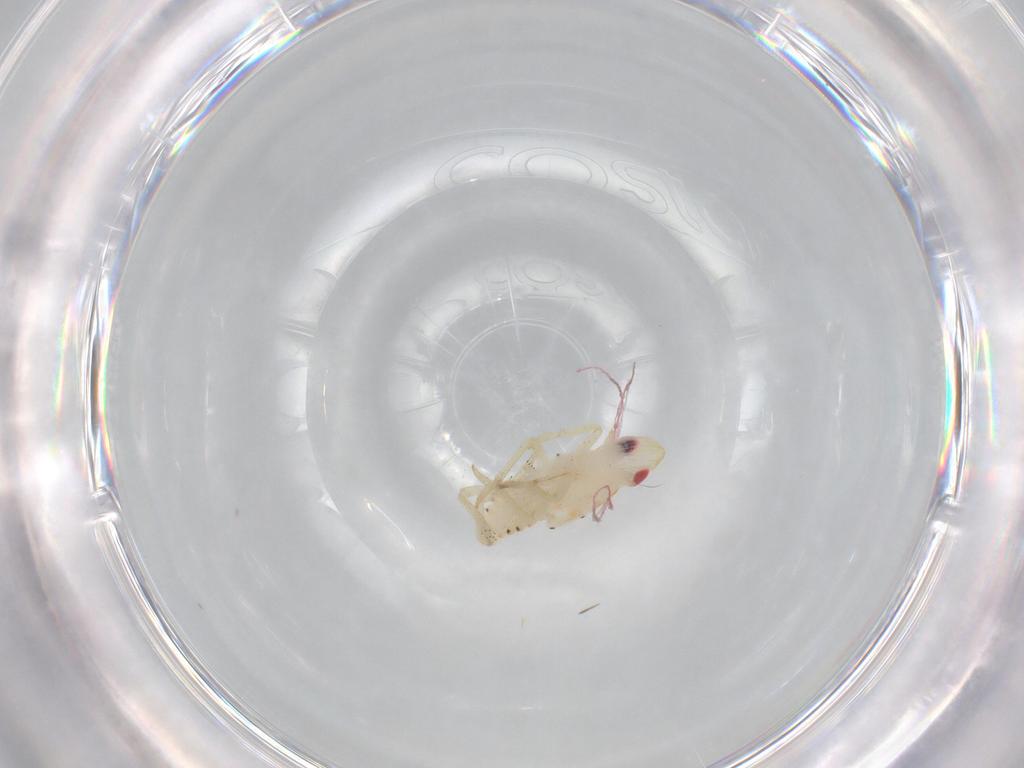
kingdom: Animalia
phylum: Arthropoda
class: Insecta
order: Hemiptera
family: Tropiduchidae
